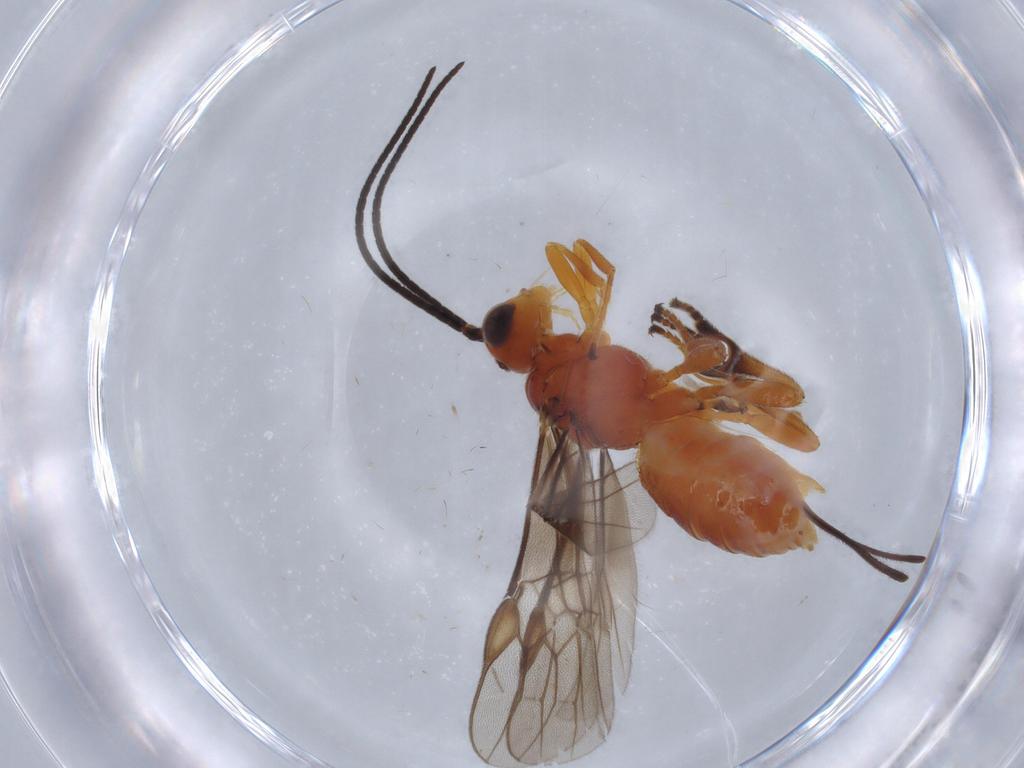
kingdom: Animalia
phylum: Arthropoda
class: Insecta
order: Hymenoptera
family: Braconidae
